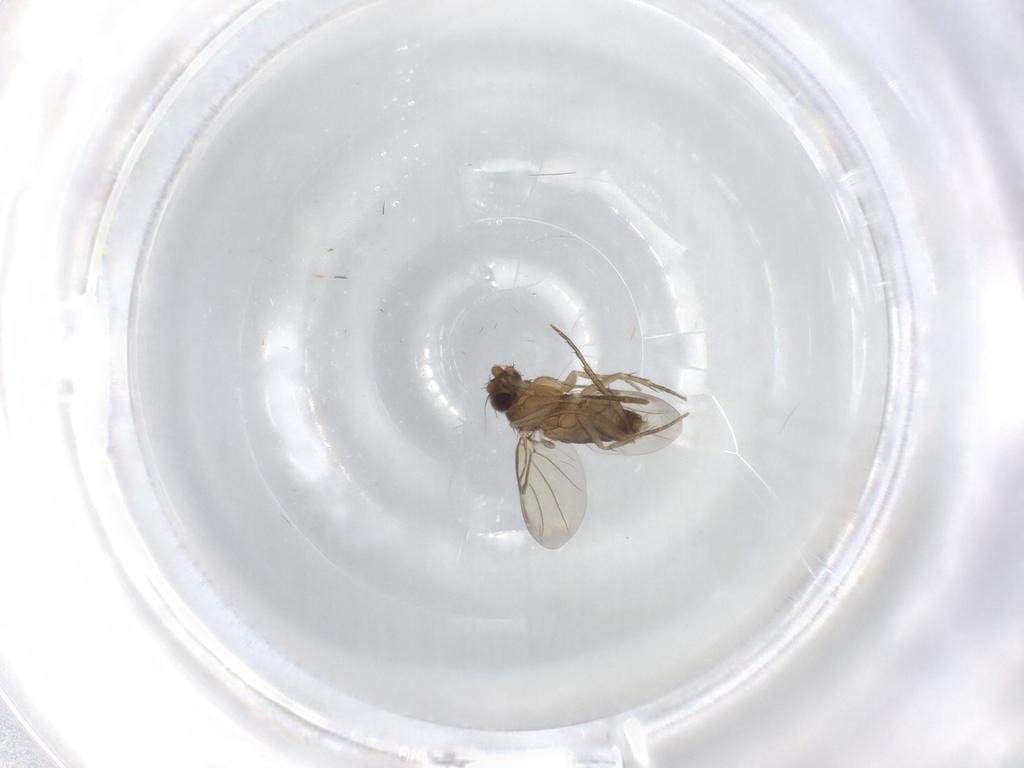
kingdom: Animalia
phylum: Arthropoda
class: Insecta
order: Diptera
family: Phoridae
